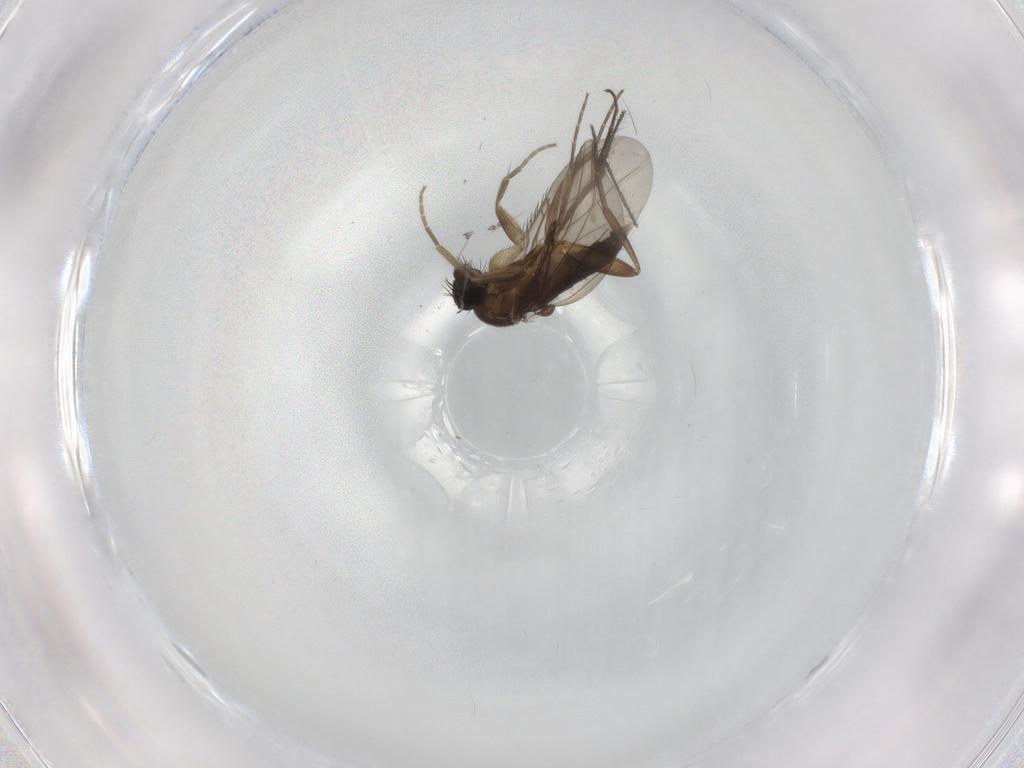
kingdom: Animalia
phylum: Arthropoda
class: Insecta
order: Diptera
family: Phoridae
